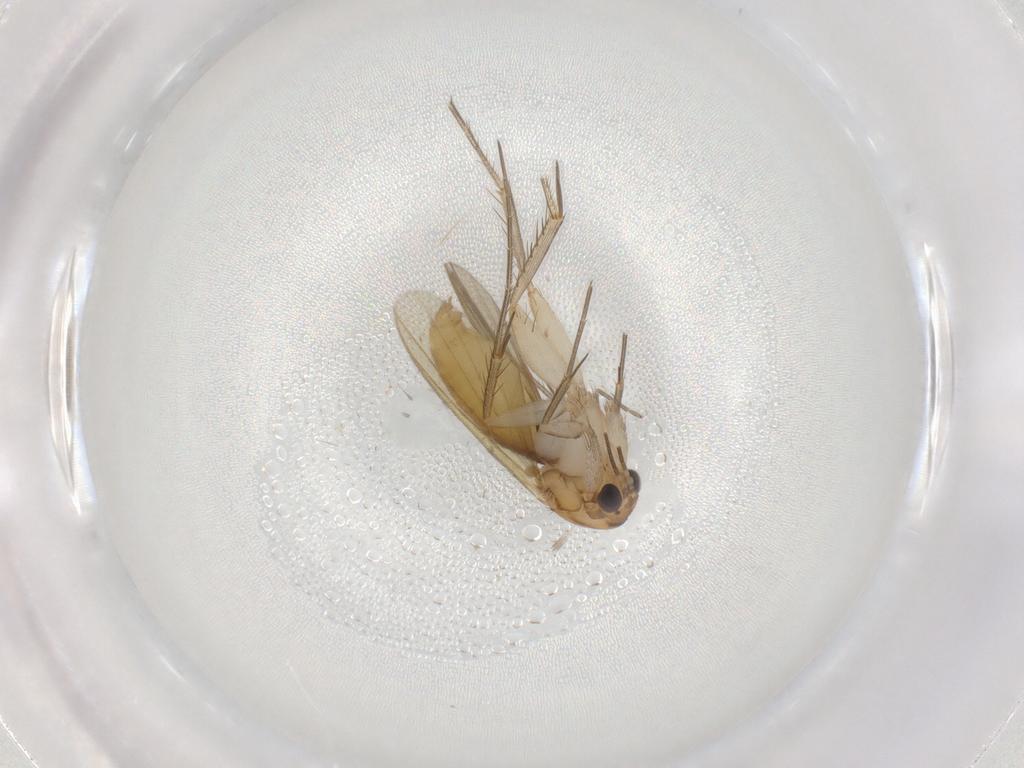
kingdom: Animalia
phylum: Arthropoda
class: Insecta
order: Diptera
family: Mycetophilidae
